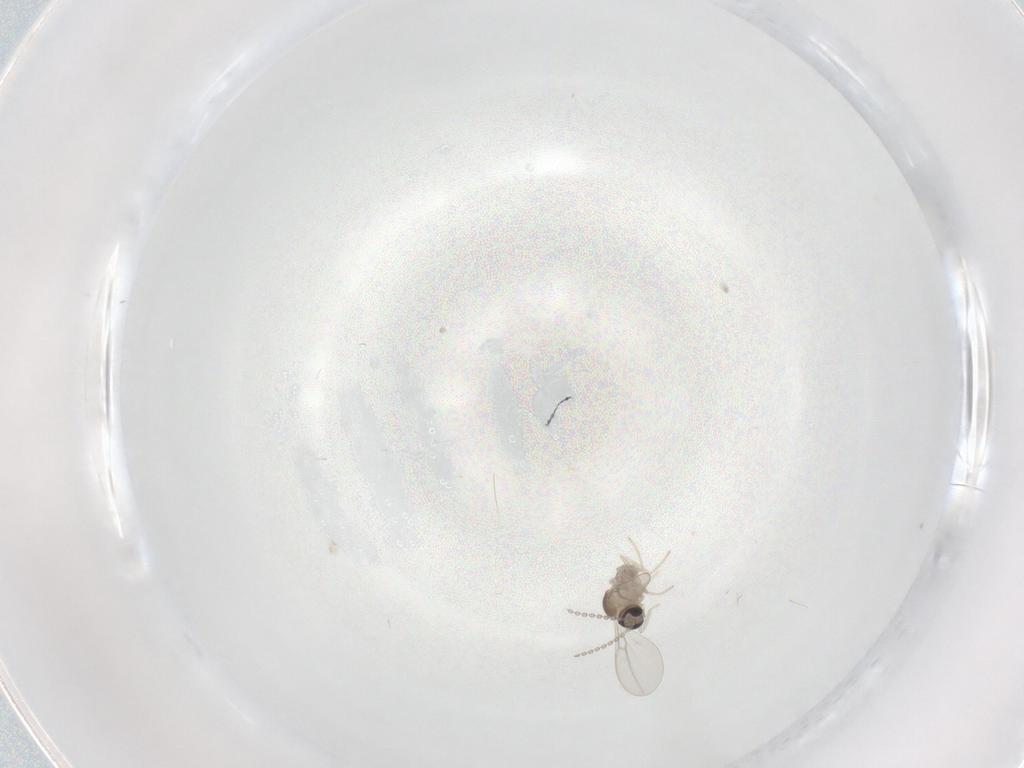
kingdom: Animalia
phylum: Arthropoda
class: Insecta
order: Diptera
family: Cecidomyiidae
